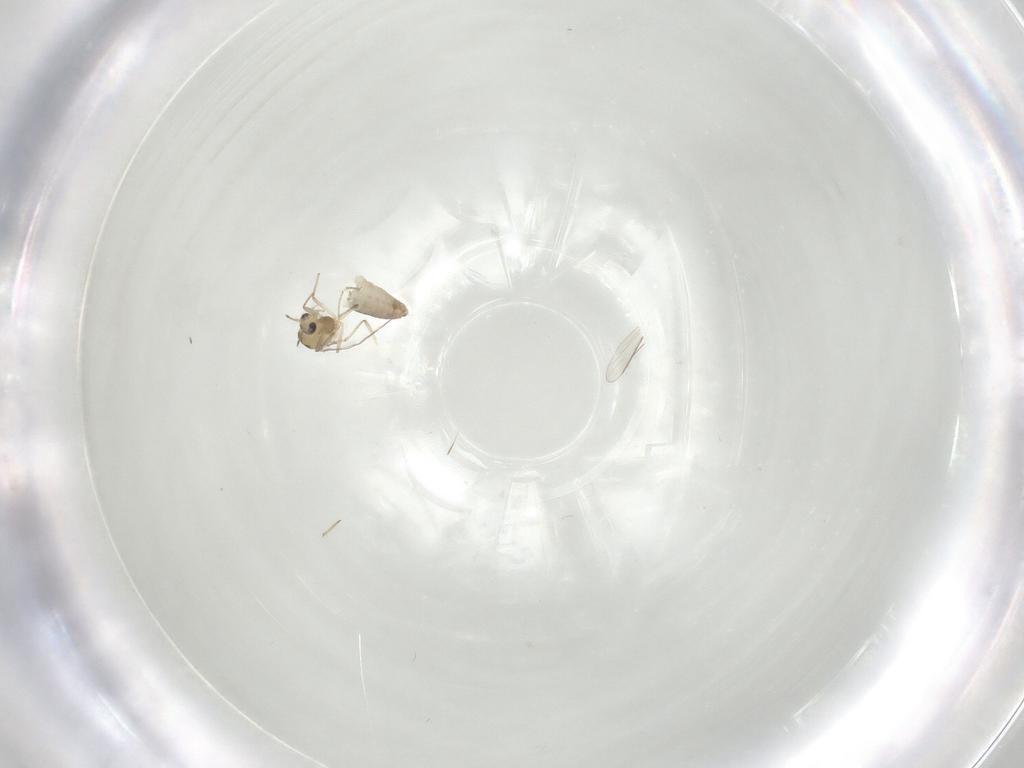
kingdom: Animalia
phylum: Arthropoda
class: Insecta
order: Diptera
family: Chironomidae
